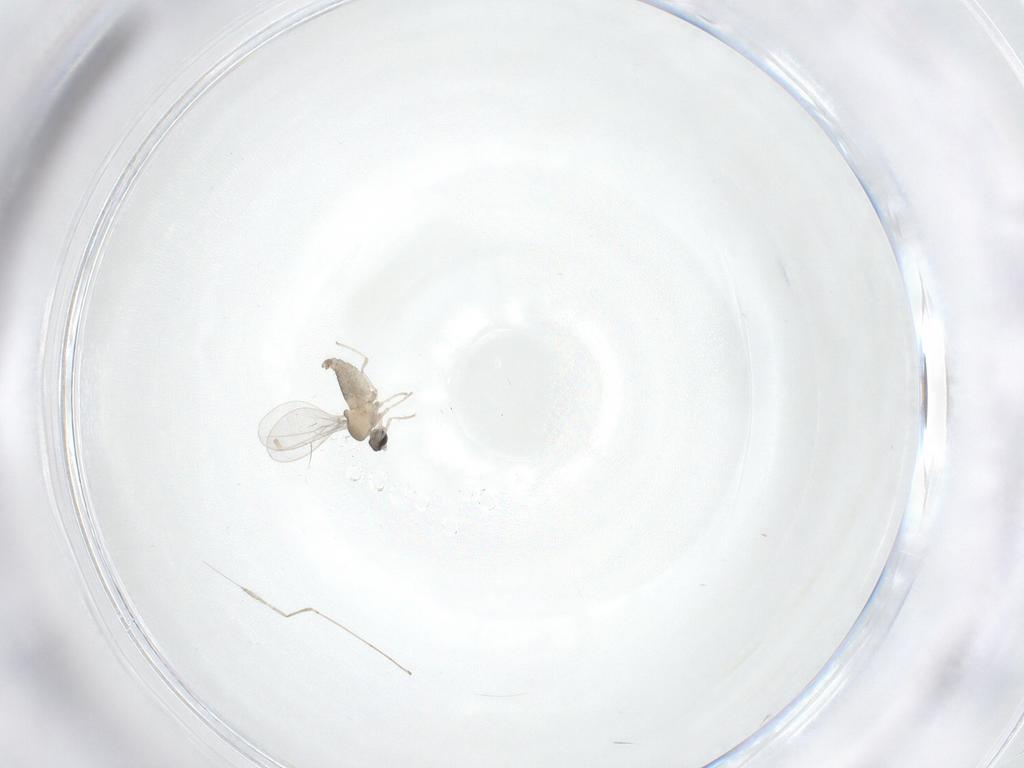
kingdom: Animalia
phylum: Arthropoda
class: Insecta
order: Diptera
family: Cecidomyiidae
